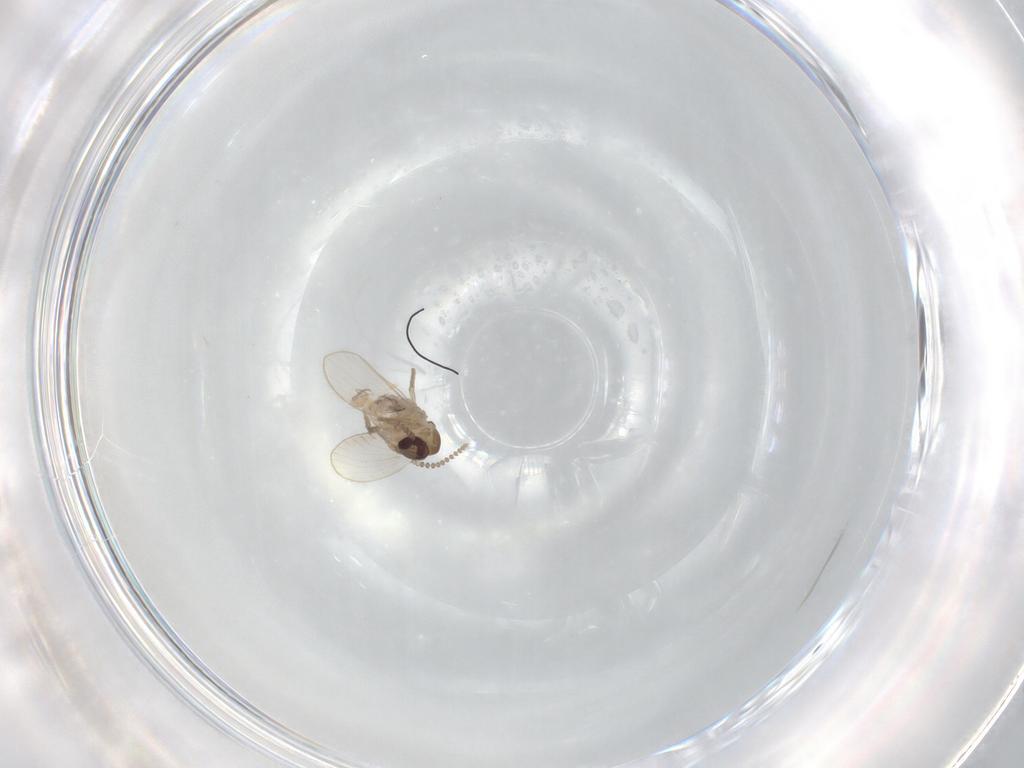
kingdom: Animalia
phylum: Arthropoda
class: Insecta
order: Diptera
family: Psychodidae
